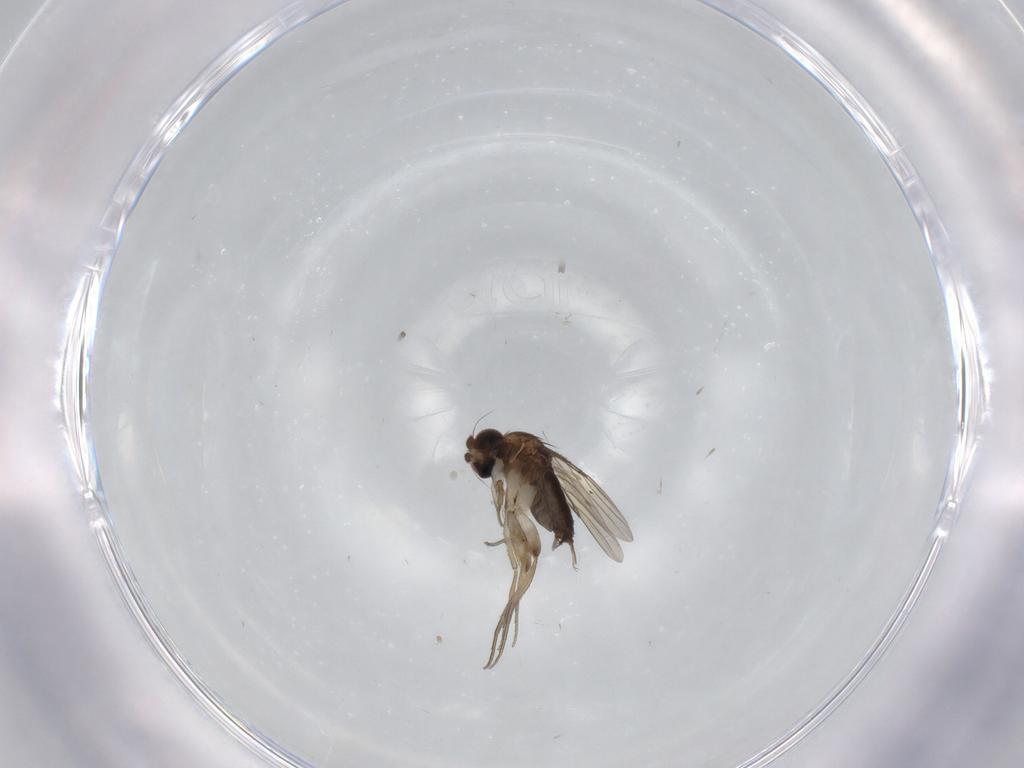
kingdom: Animalia
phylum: Arthropoda
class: Insecta
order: Diptera
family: Phoridae
